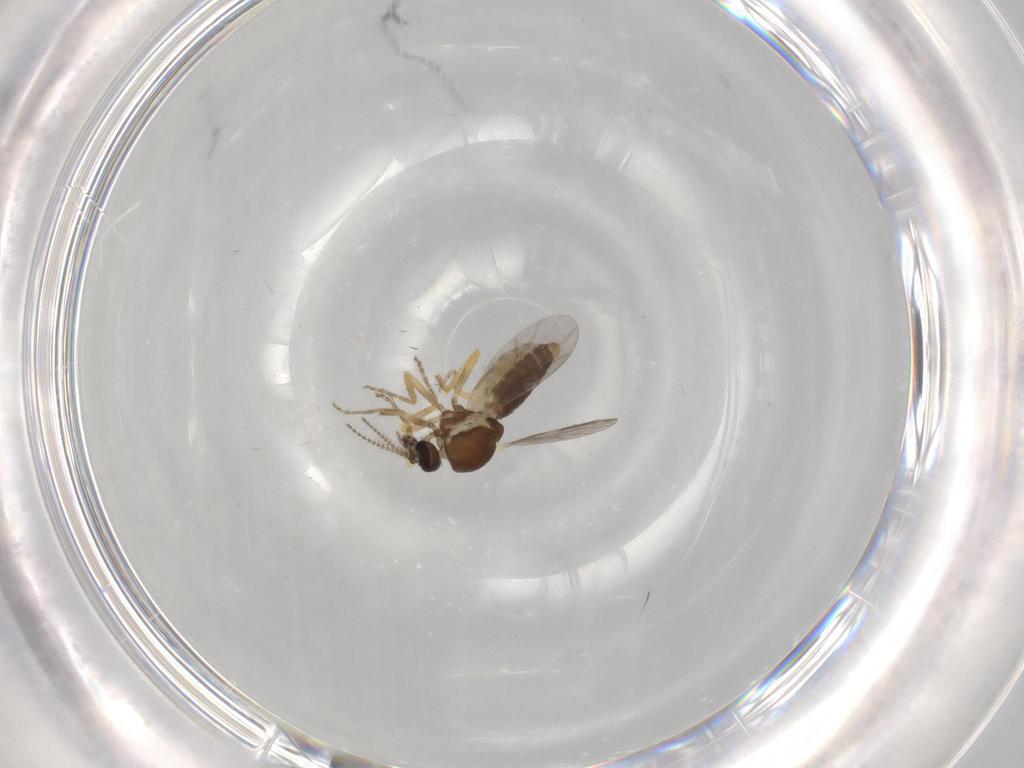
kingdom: Animalia
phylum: Arthropoda
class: Insecta
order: Diptera
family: Ceratopogonidae
